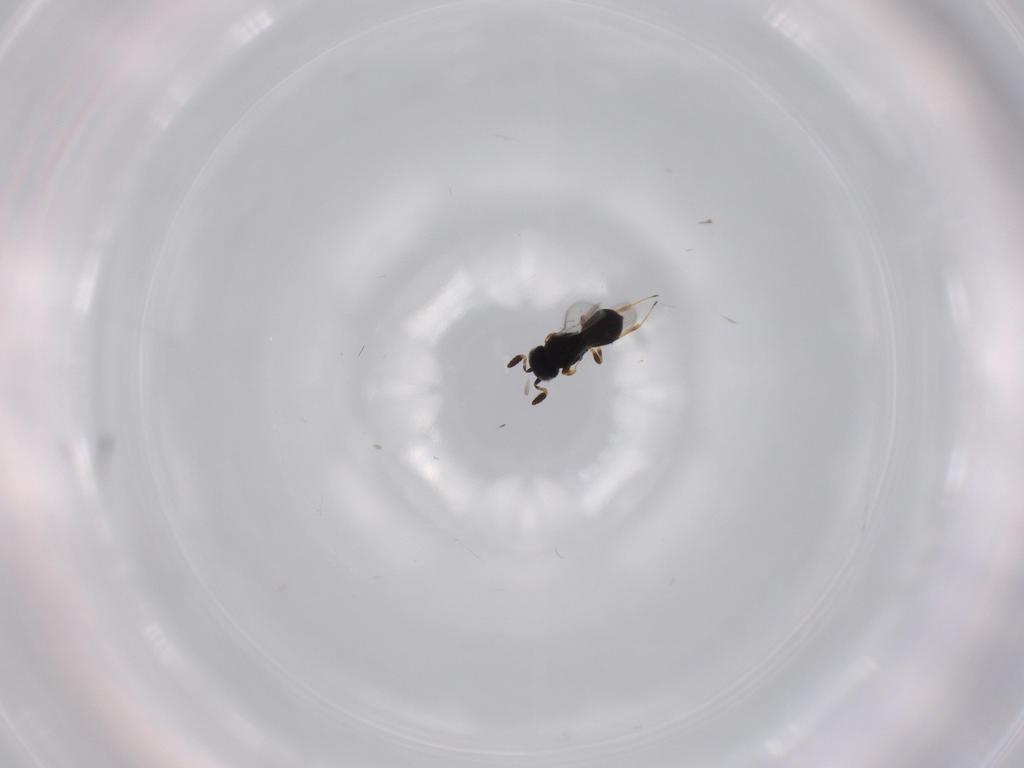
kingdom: Animalia
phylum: Arthropoda
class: Insecta
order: Hymenoptera
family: Scelionidae
